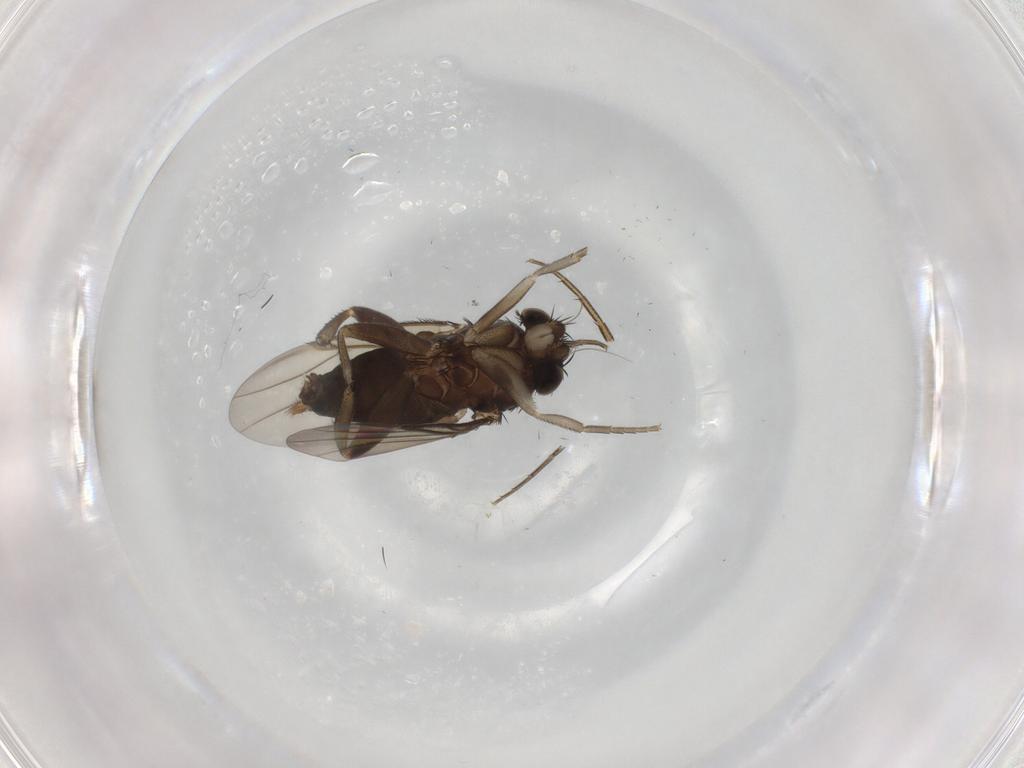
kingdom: Animalia
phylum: Arthropoda
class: Insecta
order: Diptera
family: Phoridae
